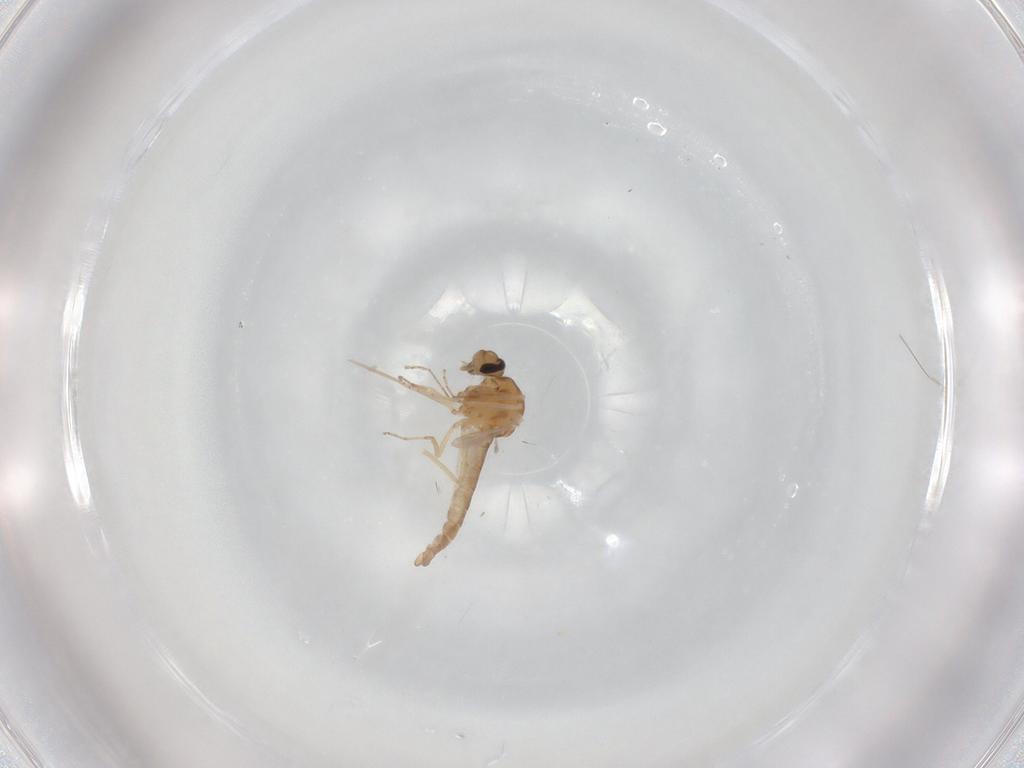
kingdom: Animalia
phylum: Arthropoda
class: Insecta
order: Diptera
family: Ceratopogonidae
